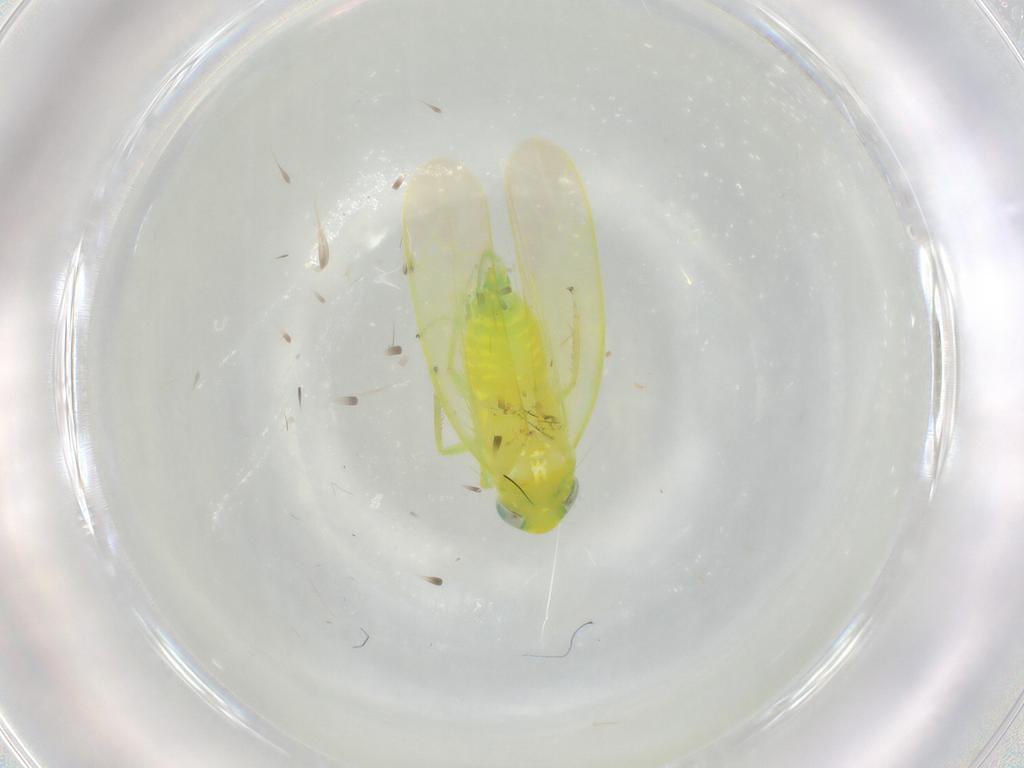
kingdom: Animalia
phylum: Arthropoda
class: Insecta
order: Hemiptera
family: Cicadellidae
